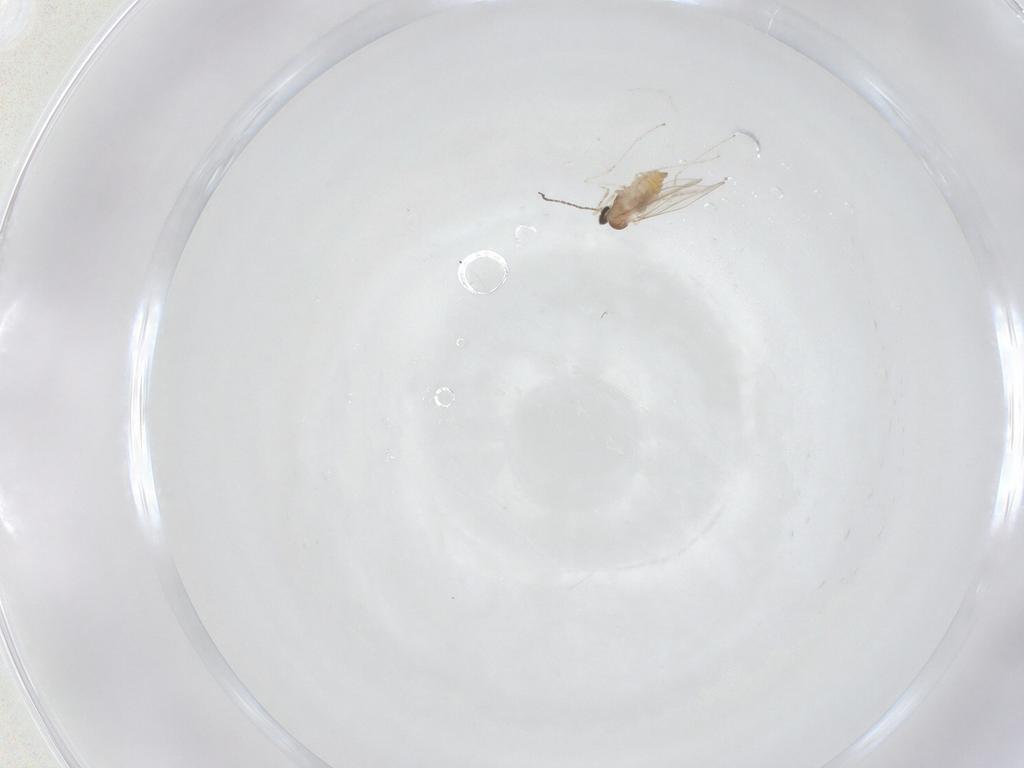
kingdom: Animalia
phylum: Arthropoda
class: Insecta
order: Diptera
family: Cecidomyiidae
